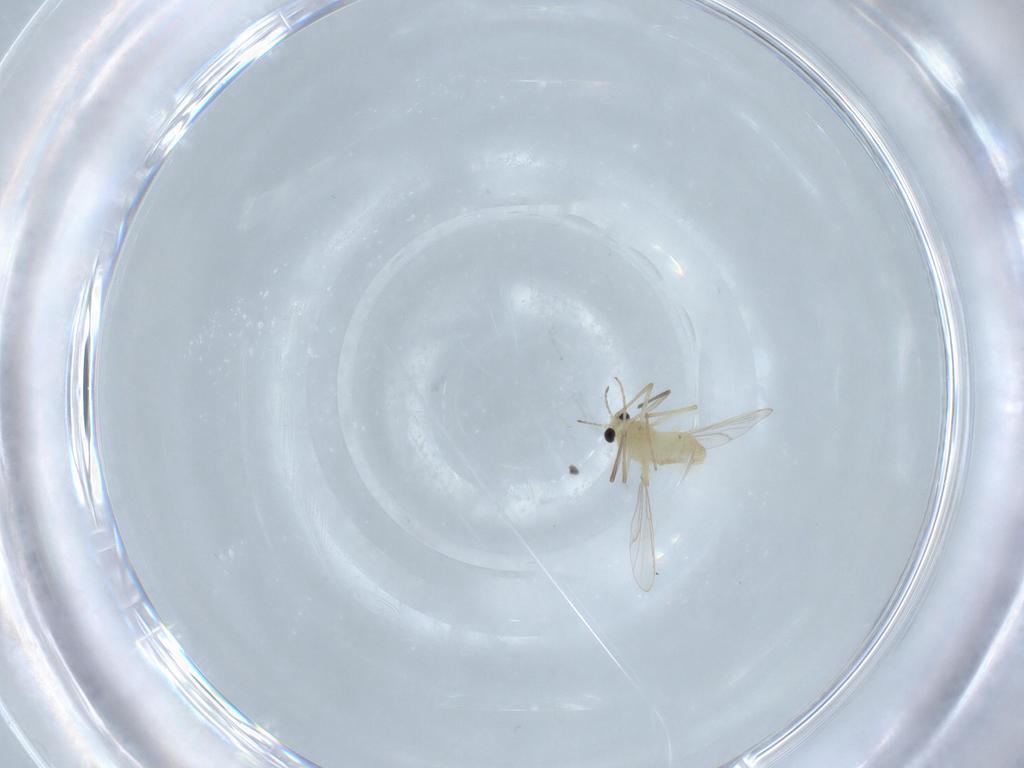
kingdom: Animalia
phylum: Arthropoda
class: Insecta
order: Diptera
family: Chironomidae
